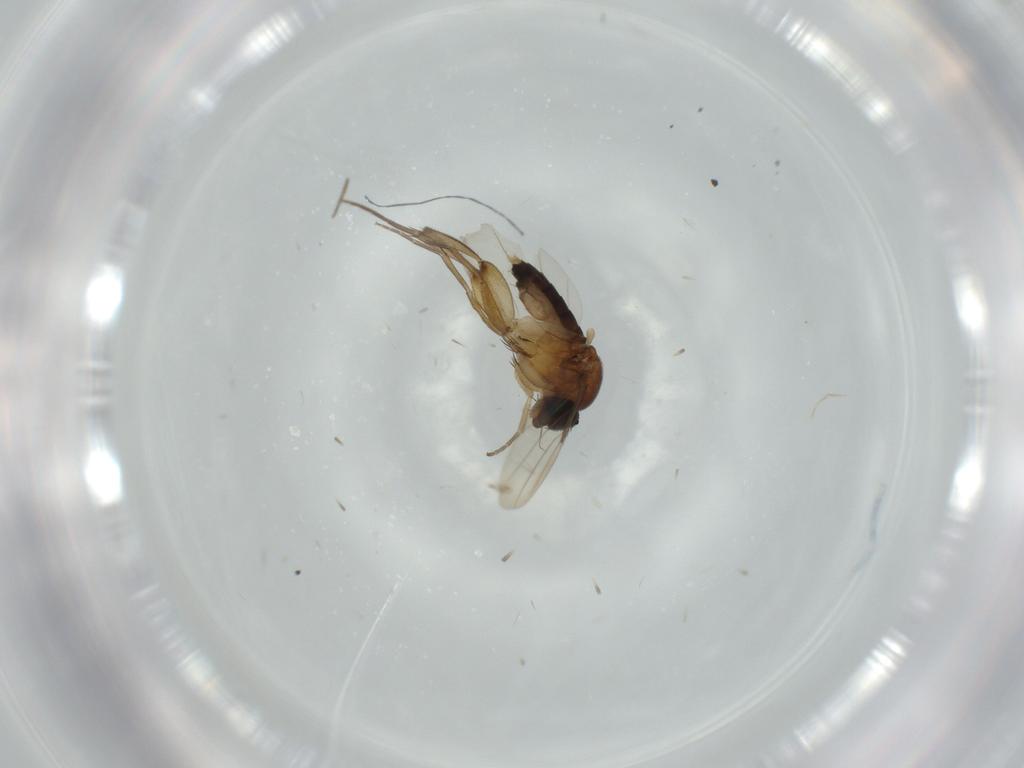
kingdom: Animalia
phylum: Arthropoda
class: Insecta
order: Diptera
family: Phoridae
